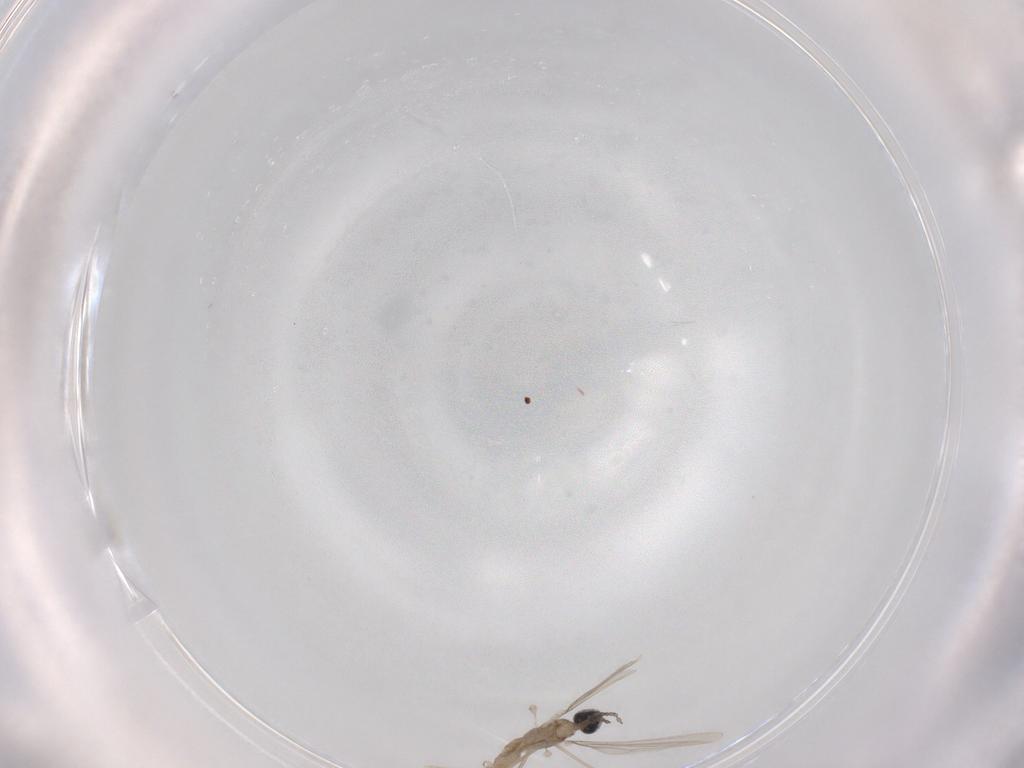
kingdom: Animalia
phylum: Arthropoda
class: Insecta
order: Diptera
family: Cecidomyiidae
